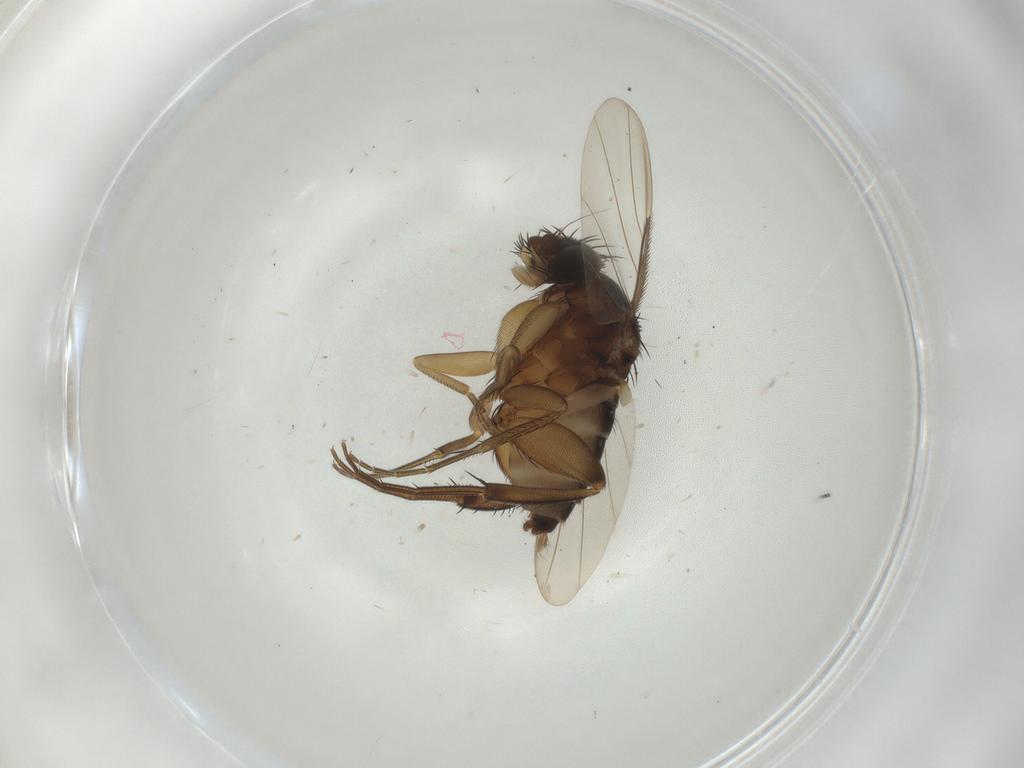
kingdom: Animalia
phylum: Arthropoda
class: Insecta
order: Diptera
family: Phoridae
